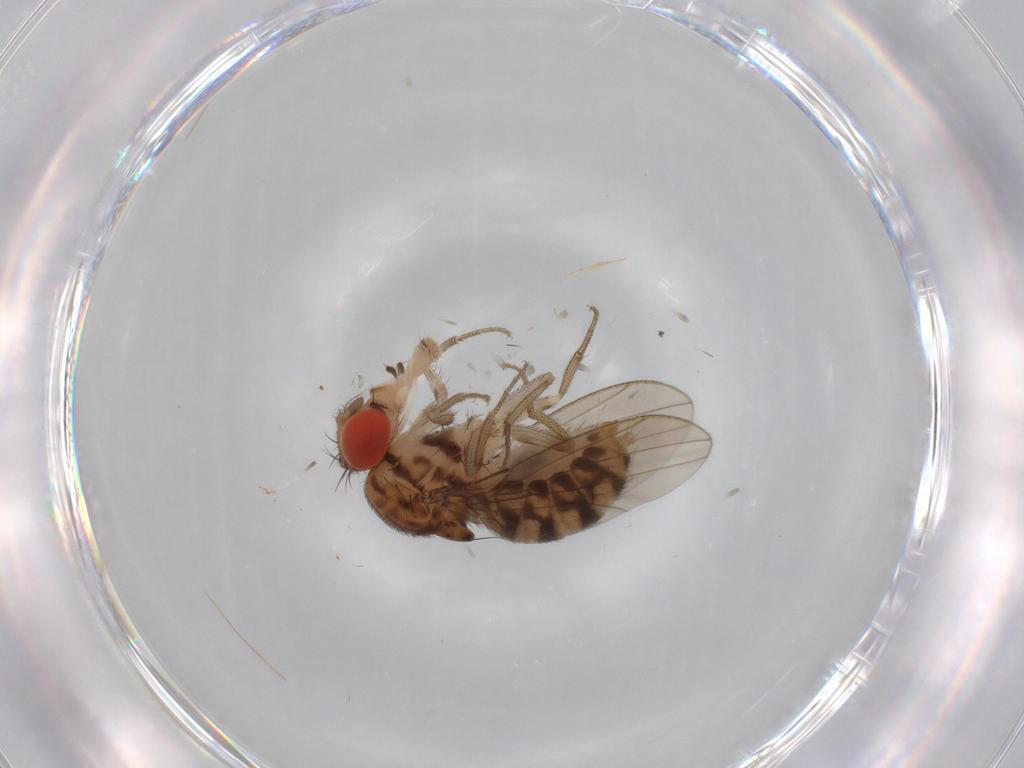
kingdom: Animalia
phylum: Arthropoda
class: Insecta
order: Diptera
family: Drosophilidae
